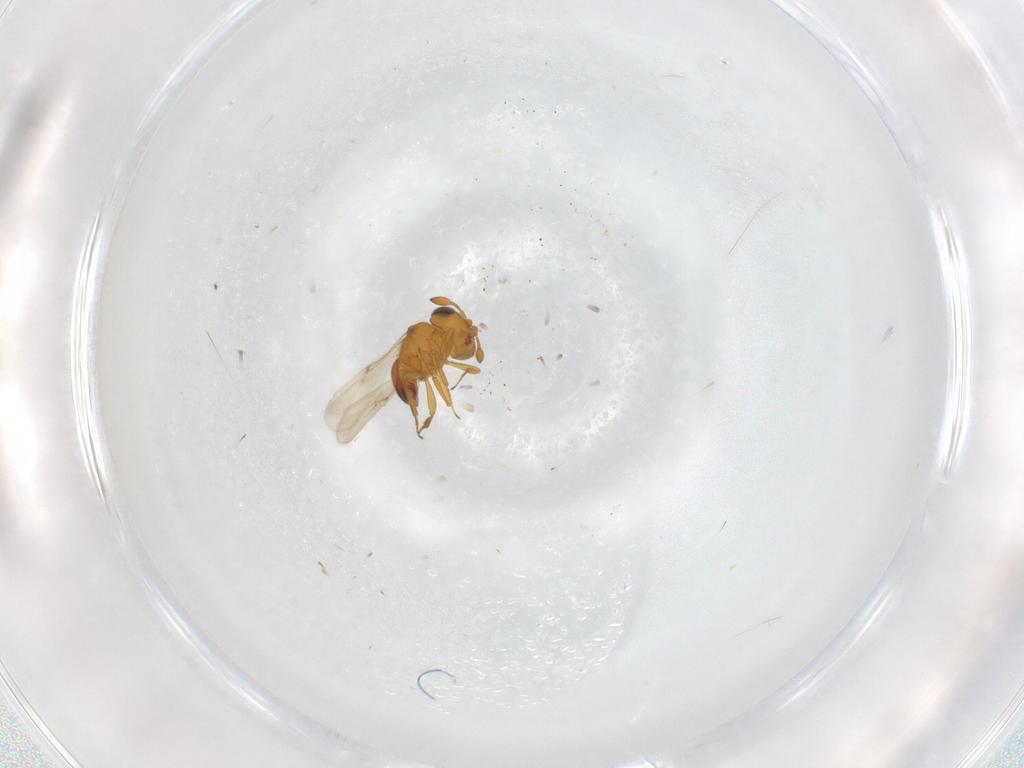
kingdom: Animalia
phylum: Arthropoda
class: Insecta
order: Hymenoptera
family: Scelionidae
